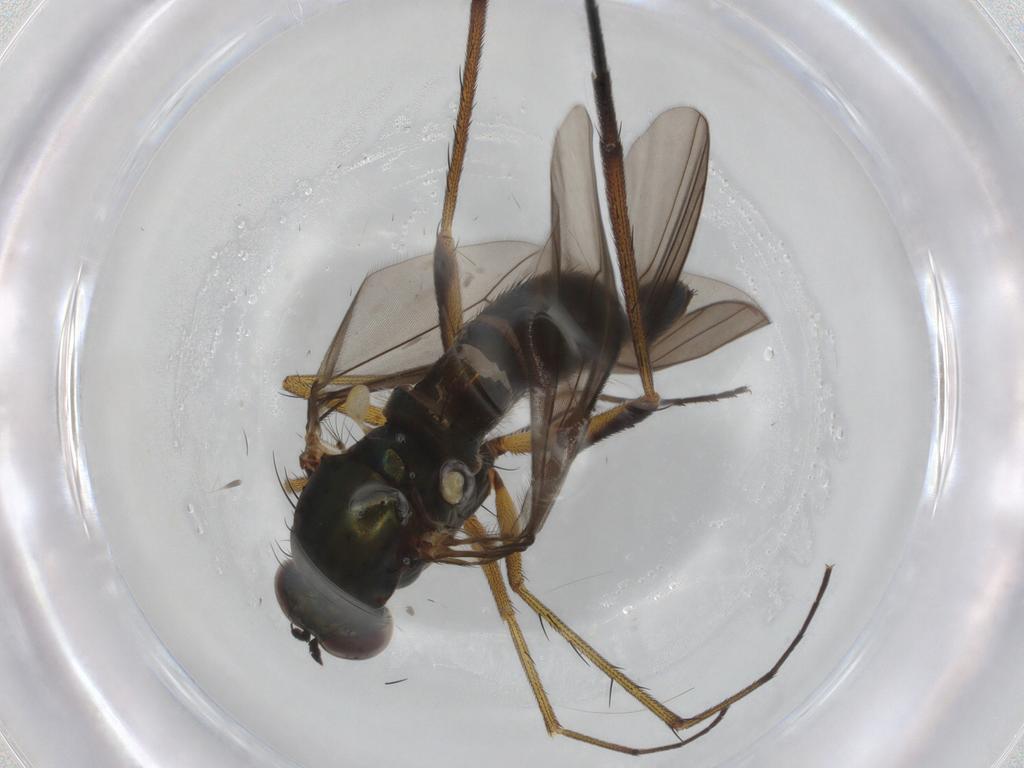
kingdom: Animalia
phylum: Arthropoda
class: Insecta
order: Diptera
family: Dolichopodidae
